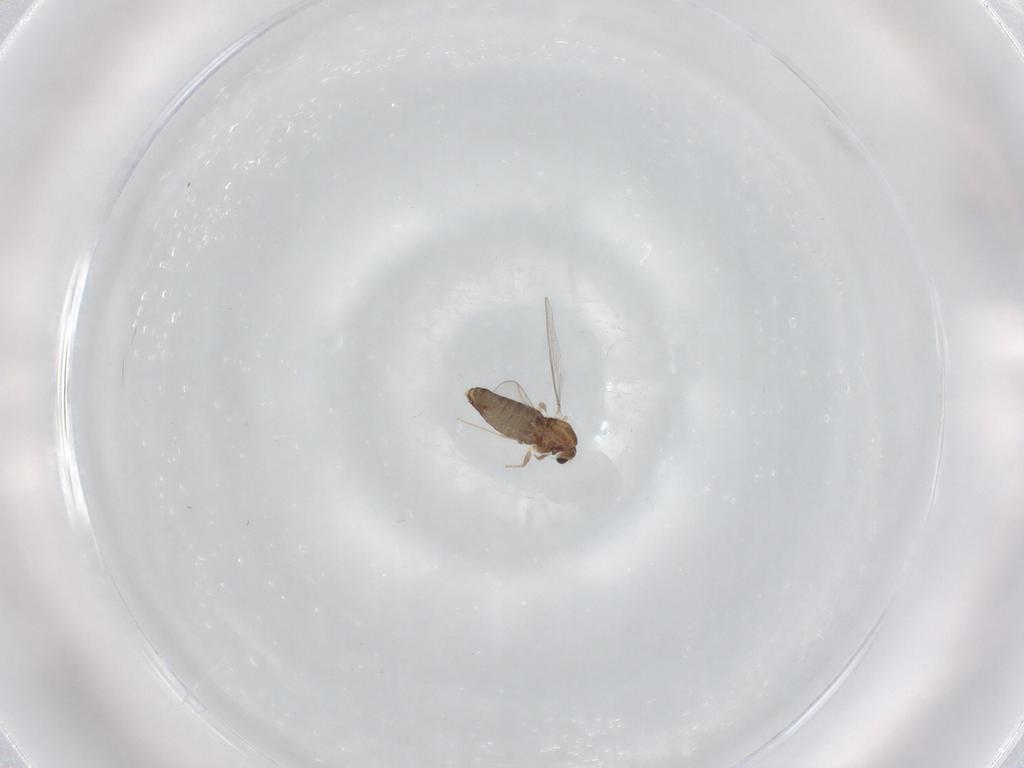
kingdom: Animalia
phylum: Arthropoda
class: Insecta
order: Diptera
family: Chironomidae
